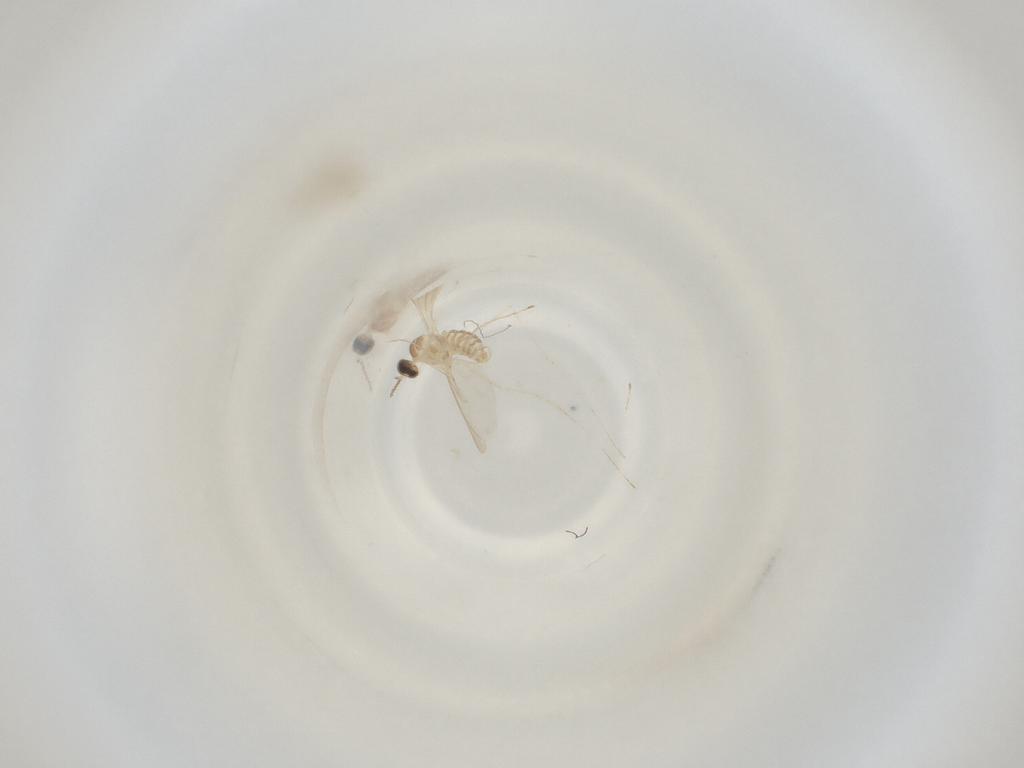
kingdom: Animalia
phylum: Arthropoda
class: Insecta
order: Diptera
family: Cecidomyiidae
